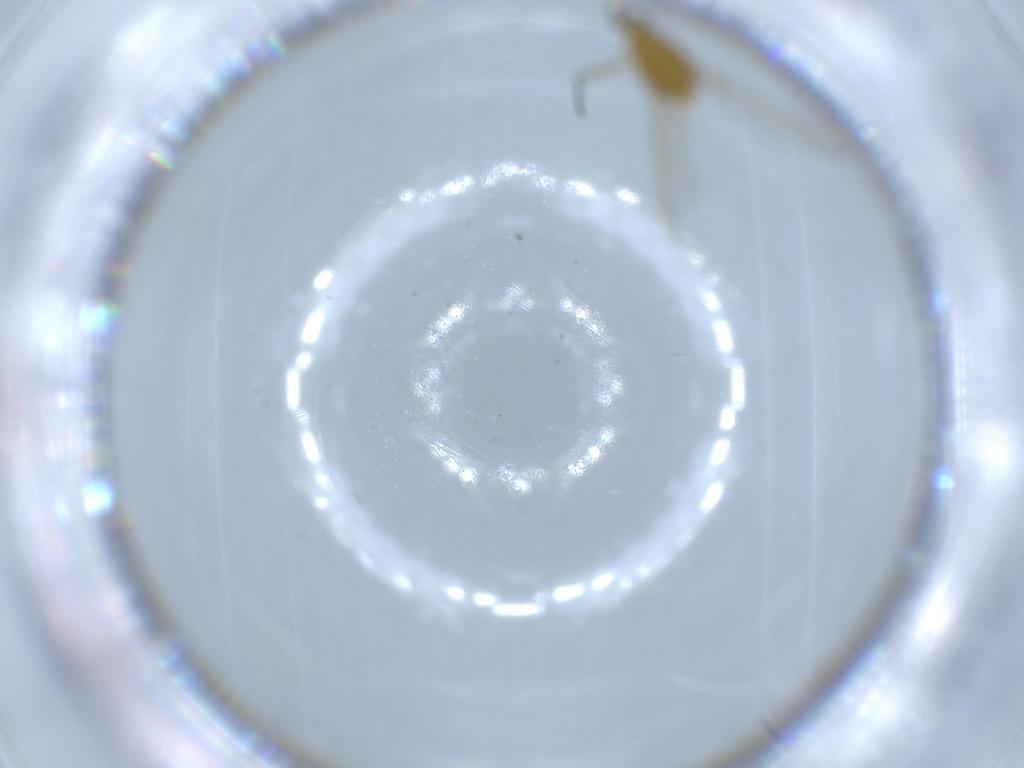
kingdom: Animalia
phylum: Arthropoda
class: Insecta
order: Diptera
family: Chironomidae
